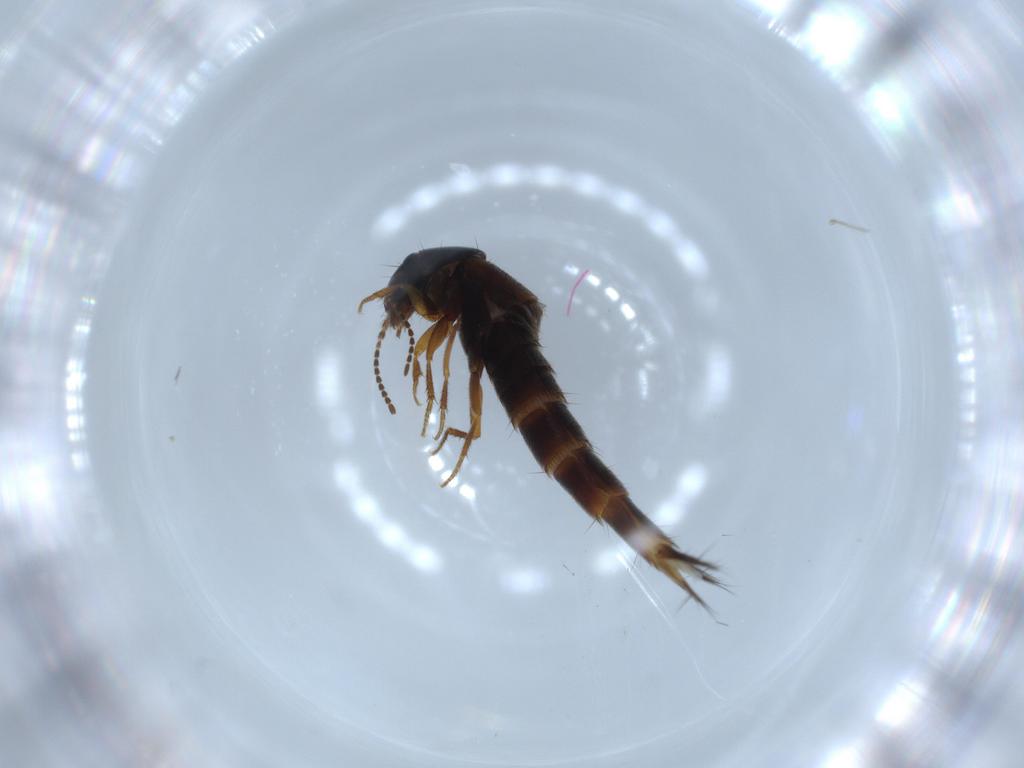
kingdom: Animalia
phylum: Arthropoda
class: Insecta
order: Coleoptera
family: Staphylinidae
